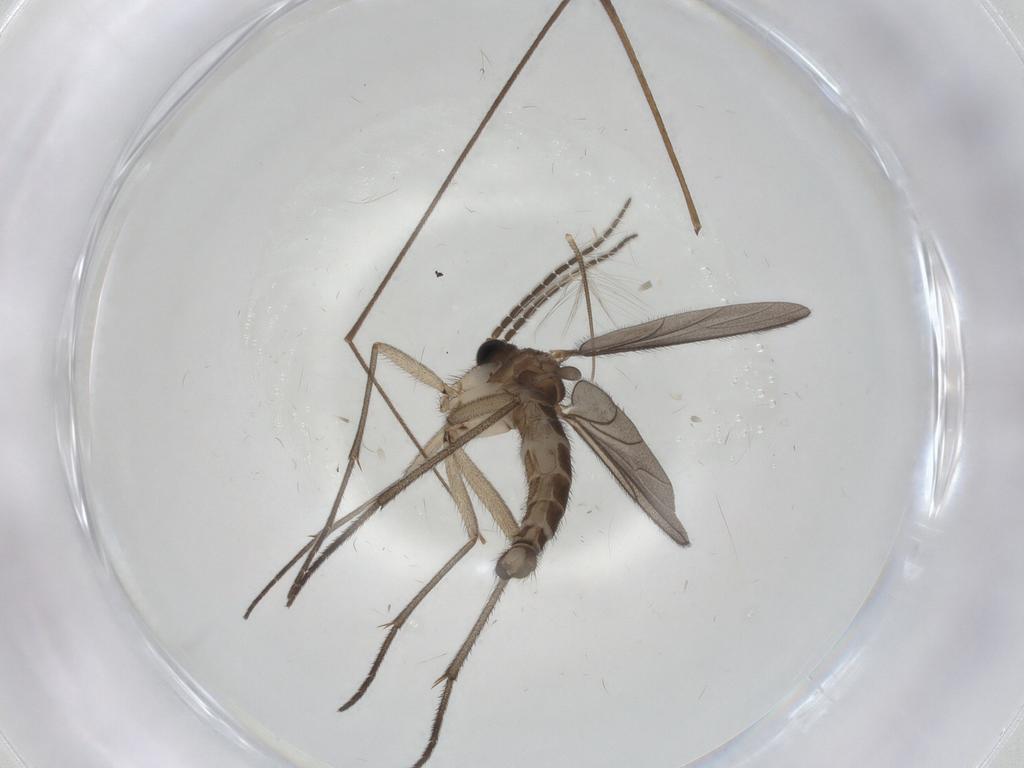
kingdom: Animalia
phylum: Arthropoda
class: Insecta
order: Diptera
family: Sciaridae
